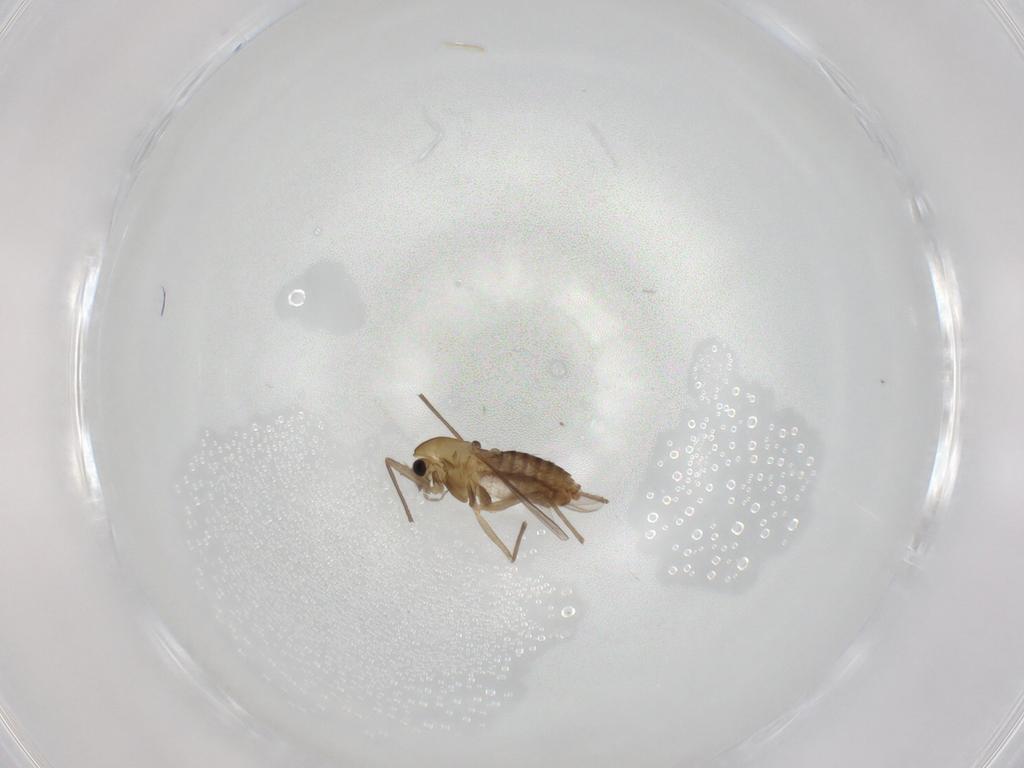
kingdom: Animalia
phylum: Arthropoda
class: Insecta
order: Diptera
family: Chironomidae
